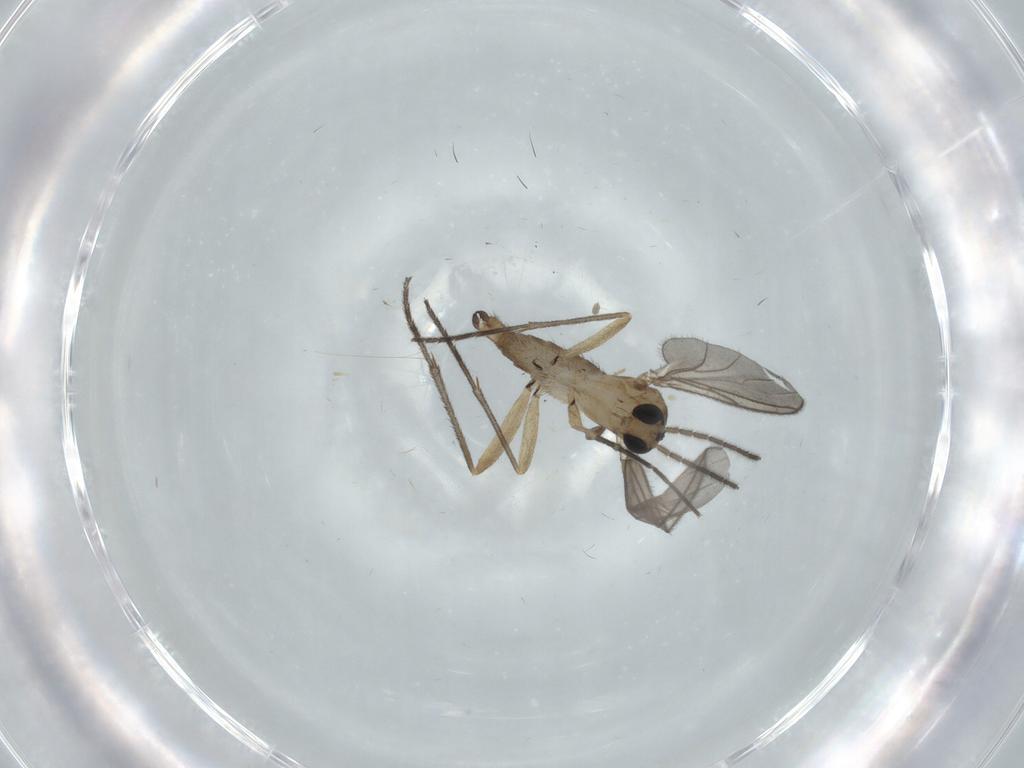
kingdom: Animalia
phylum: Arthropoda
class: Insecta
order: Diptera
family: Sciaridae
